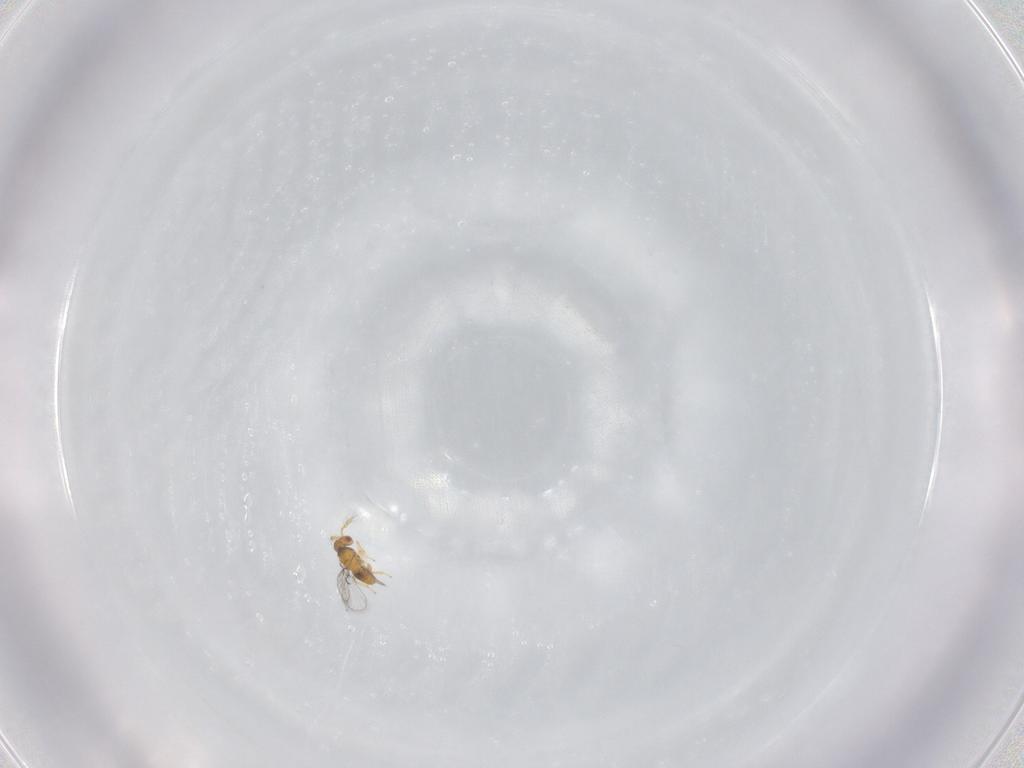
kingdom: Animalia
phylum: Arthropoda
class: Insecta
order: Hymenoptera
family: Trichogrammatidae
